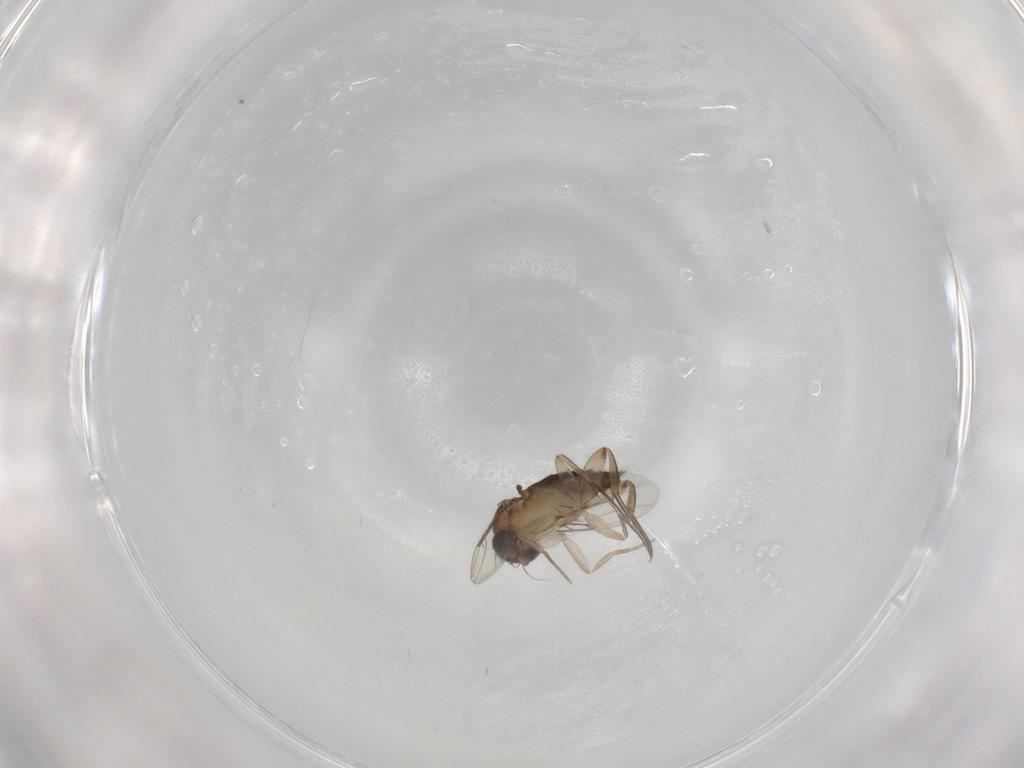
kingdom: Animalia
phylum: Arthropoda
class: Insecta
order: Diptera
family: Phoridae
